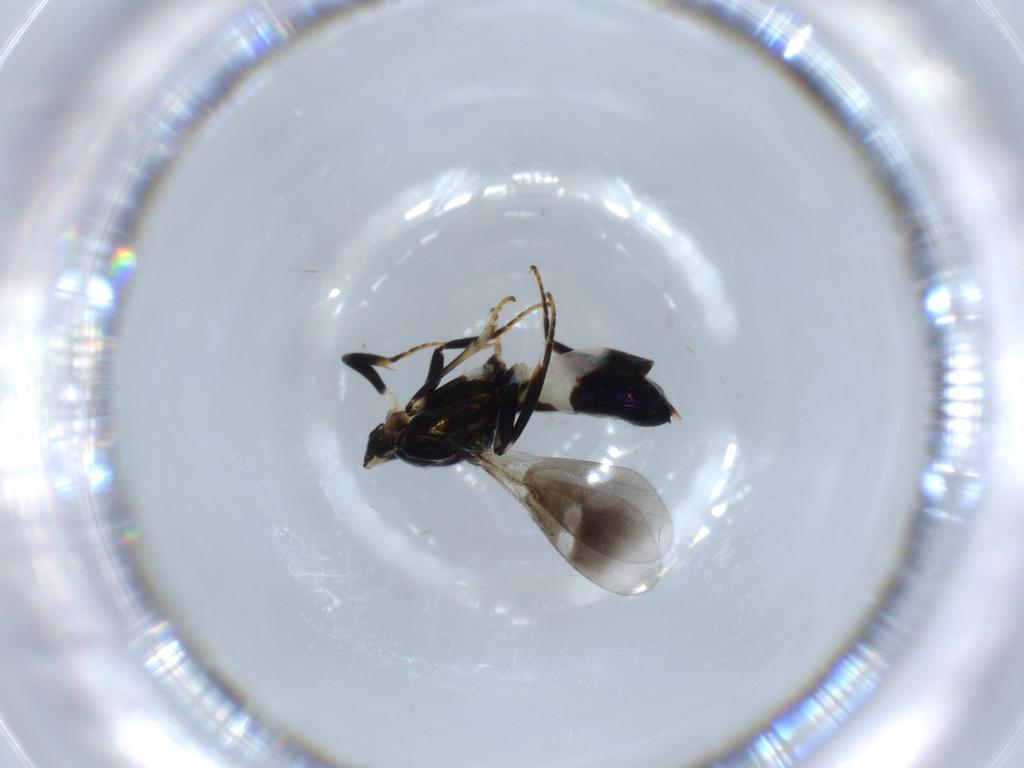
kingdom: Animalia
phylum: Arthropoda
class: Insecta
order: Hymenoptera
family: Eupelmidae
